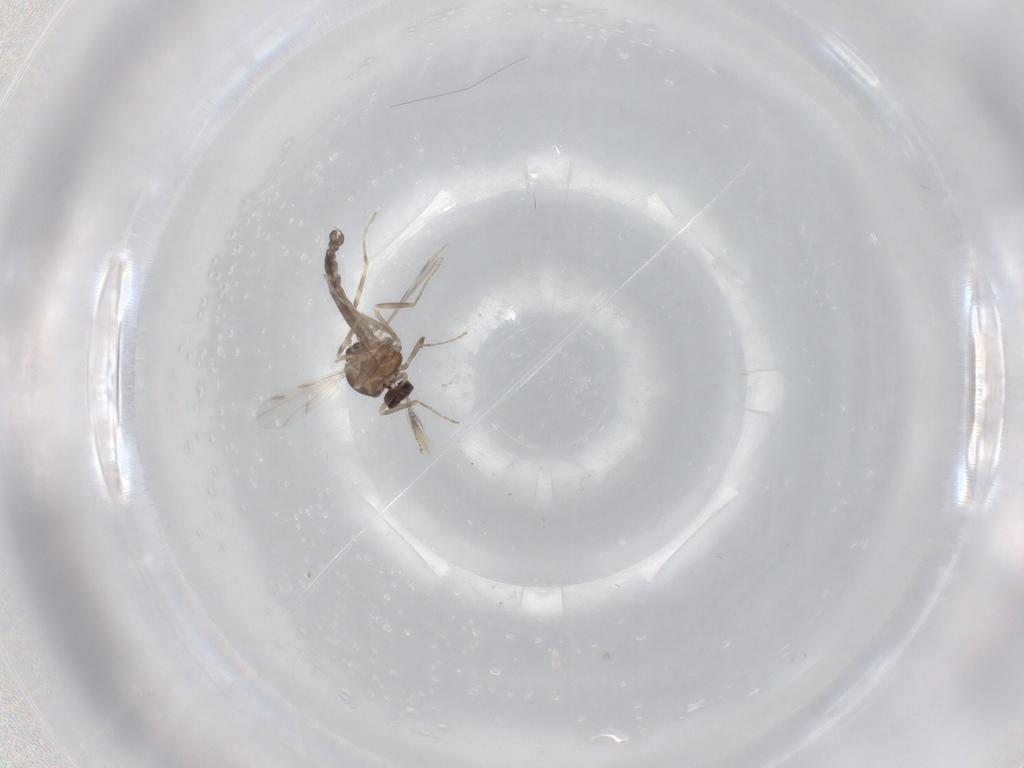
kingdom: Animalia
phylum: Arthropoda
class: Insecta
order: Diptera
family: Ceratopogonidae
